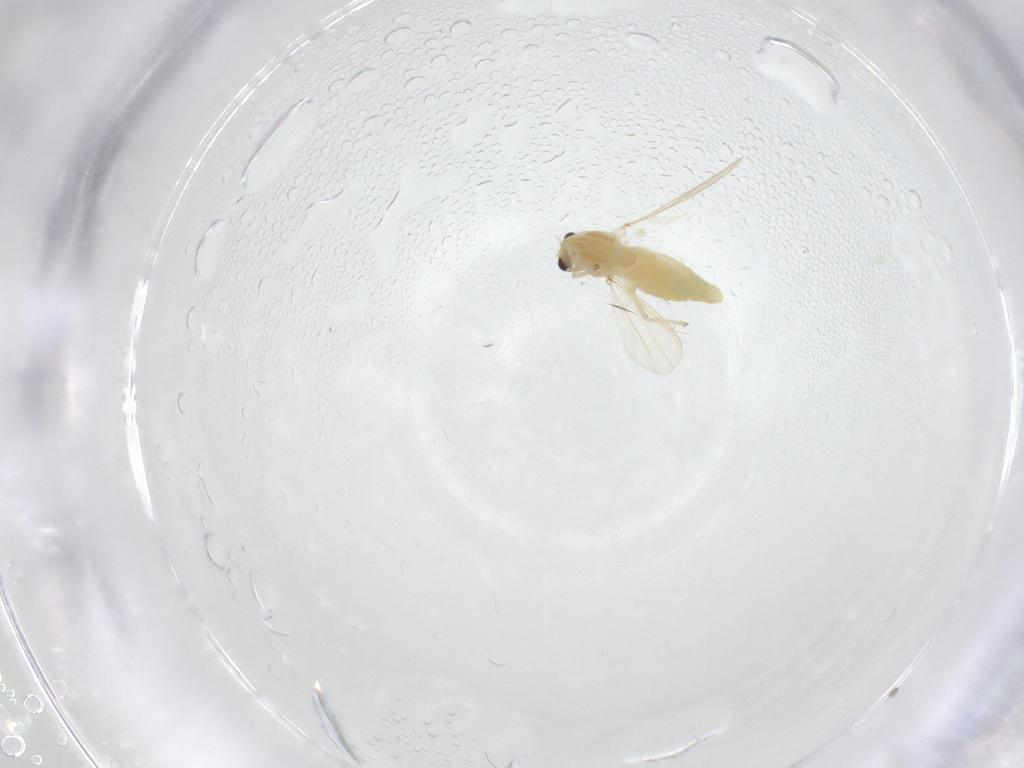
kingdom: Animalia
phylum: Arthropoda
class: Insecta
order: Diptera
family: Chironomidae
